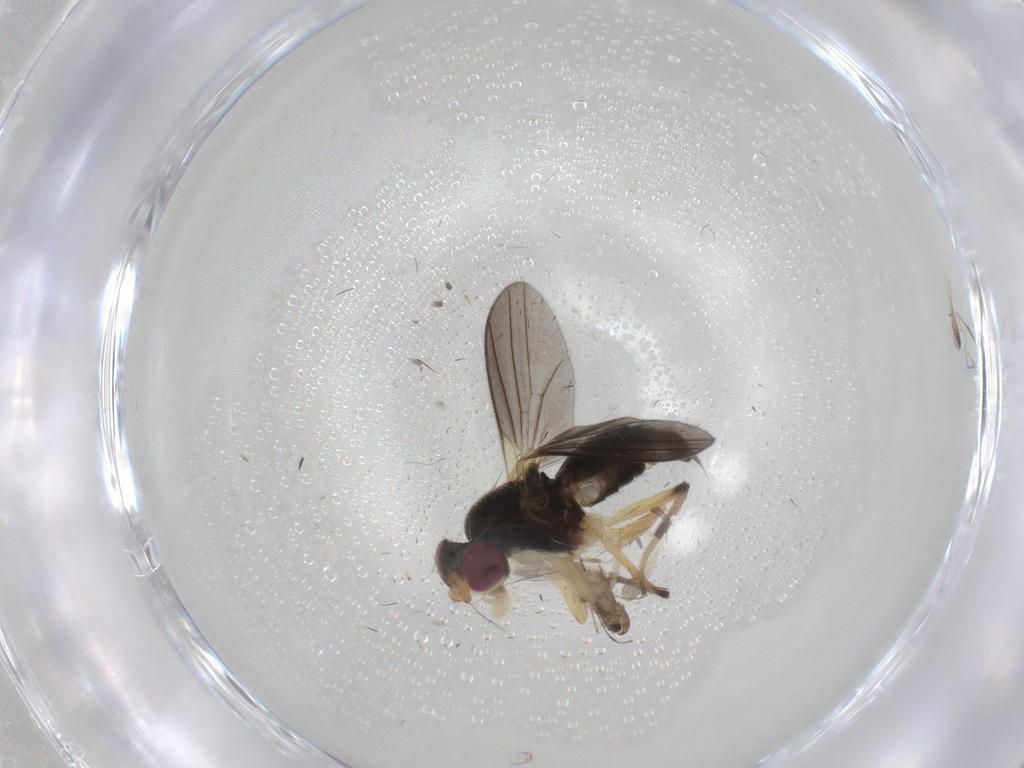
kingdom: Animalia
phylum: Arthropoda
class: Insecta
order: Diptera
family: Chironomidae
